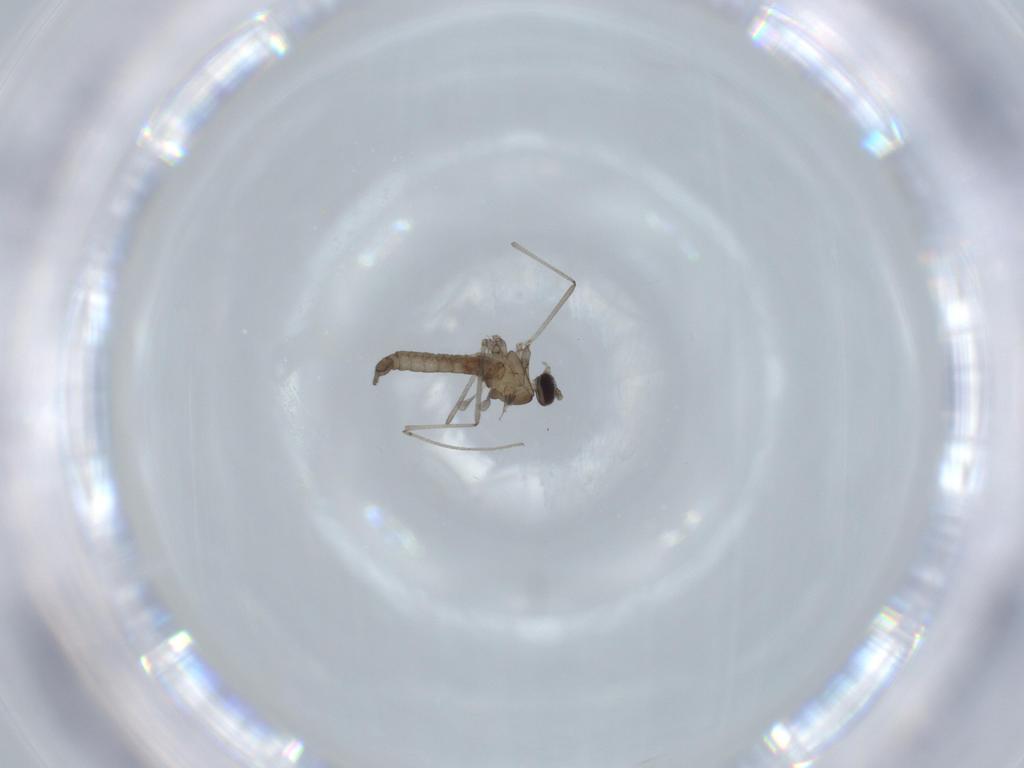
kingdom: Animalia
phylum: Arthropoda
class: Insecta
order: Diptera
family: Cecidomyiidae
